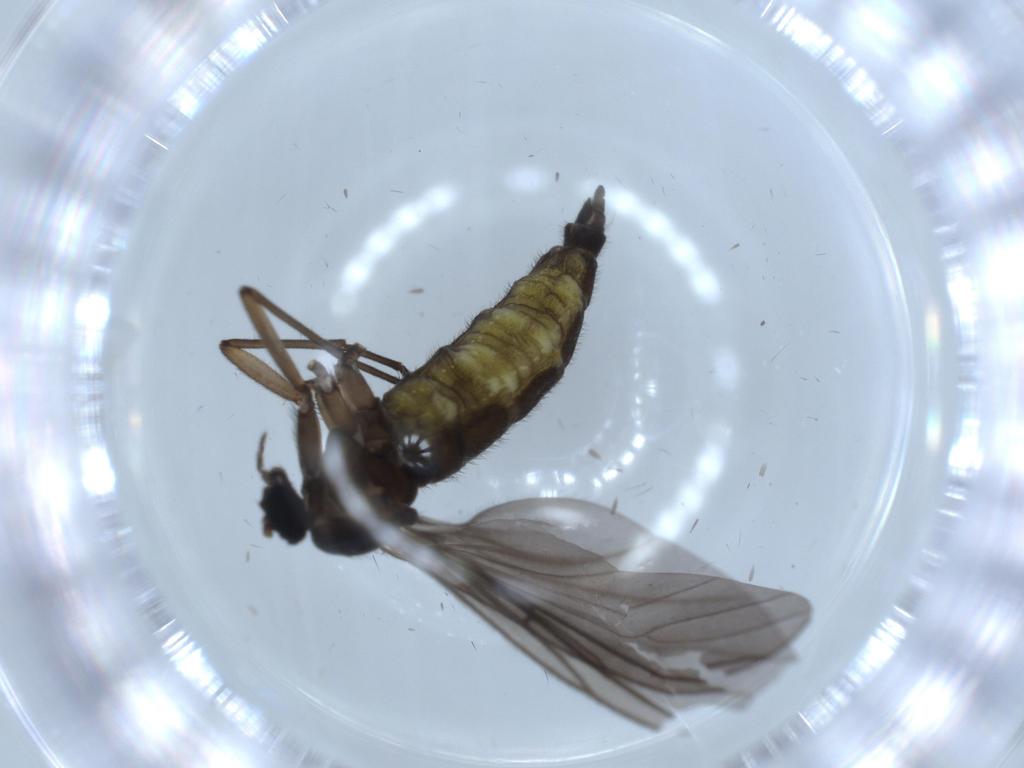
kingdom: Animalia
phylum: Arthropoda
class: Insecta
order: Diptera
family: Sciaridae
